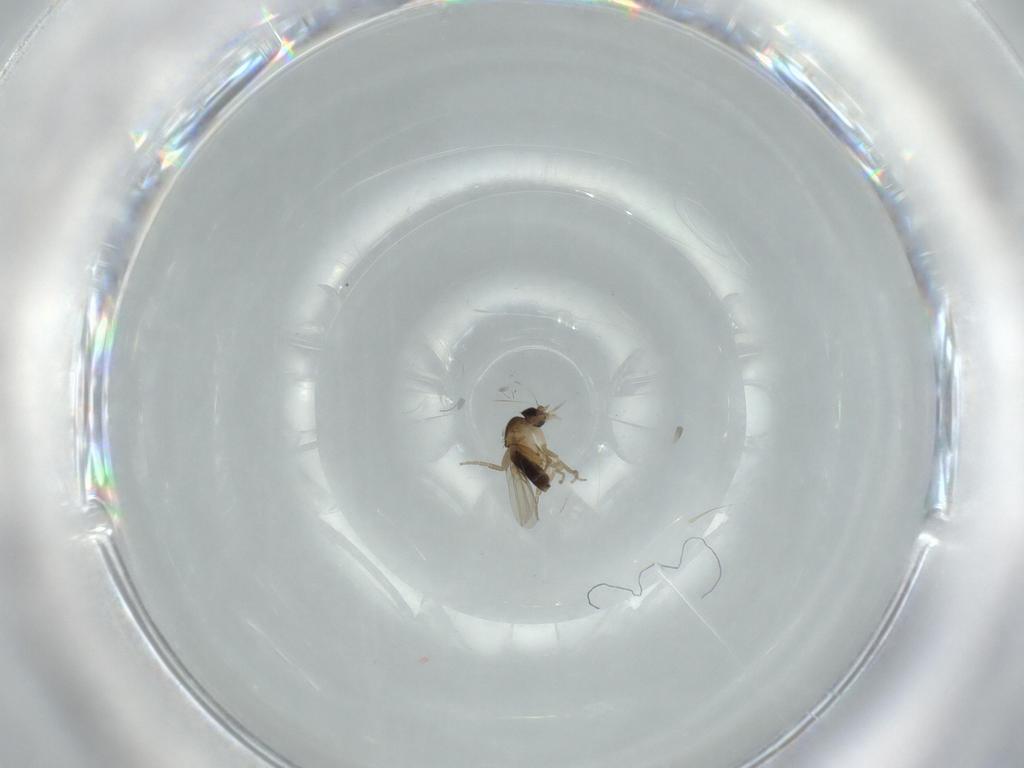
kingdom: Animalia
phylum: Arthropoda
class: Insecta
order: Diptera
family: Phoridae
